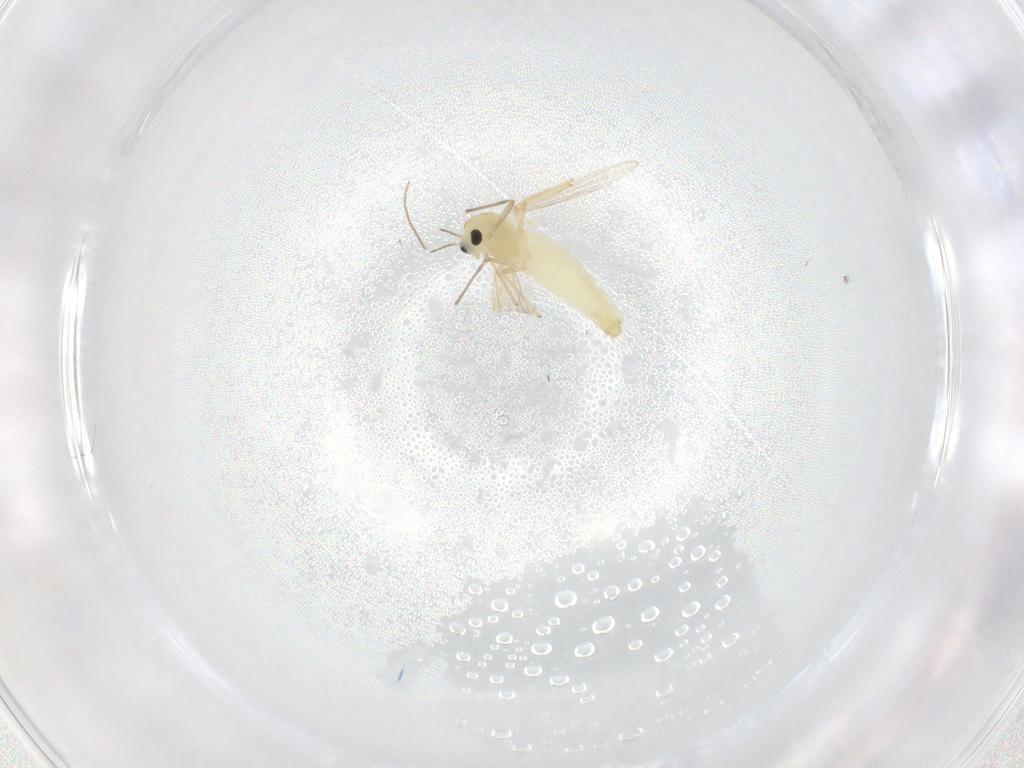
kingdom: Animalia
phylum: Arthropoda
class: Insecta
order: Diptera
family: Chironomidae
